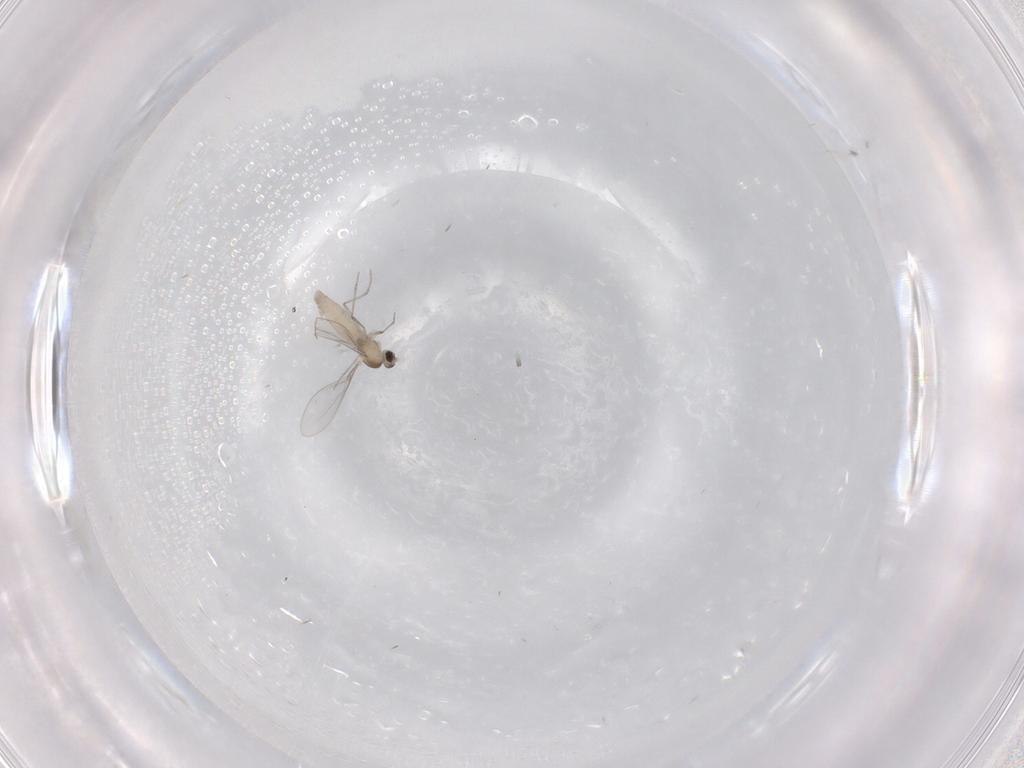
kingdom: Animalia
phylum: Arthropoda
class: Insecta
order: Diptera
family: Cecidomyiidae
